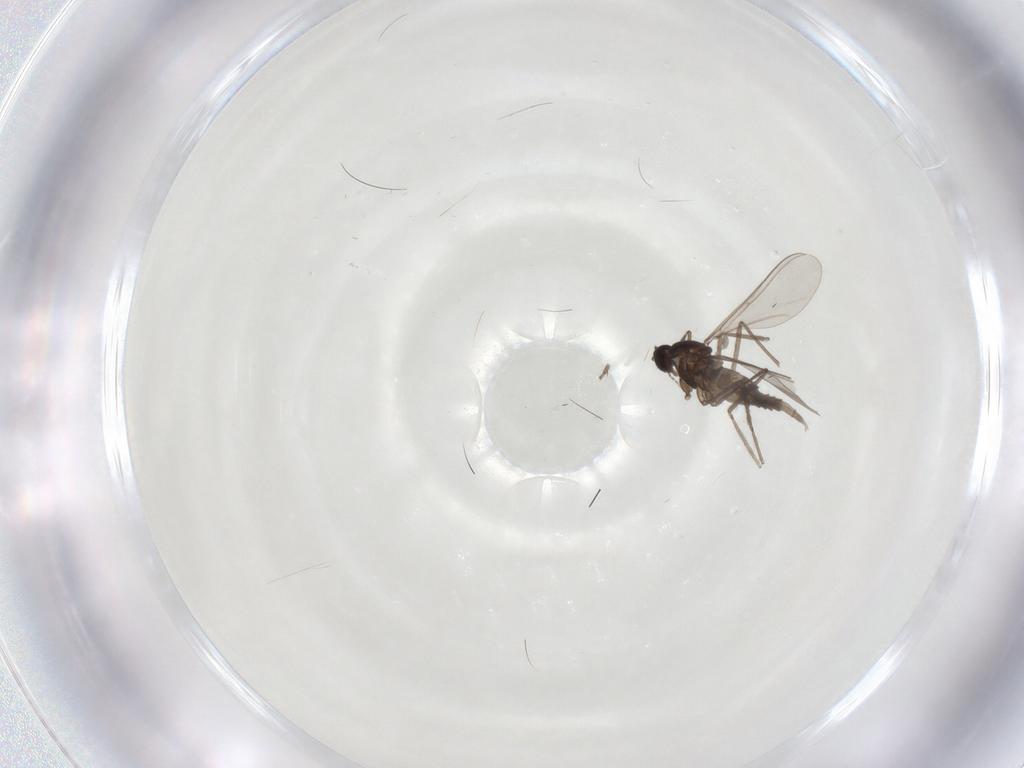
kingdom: Animalia
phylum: Arthropoda
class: Insecta
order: Diptera
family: Cecidomyiidae
